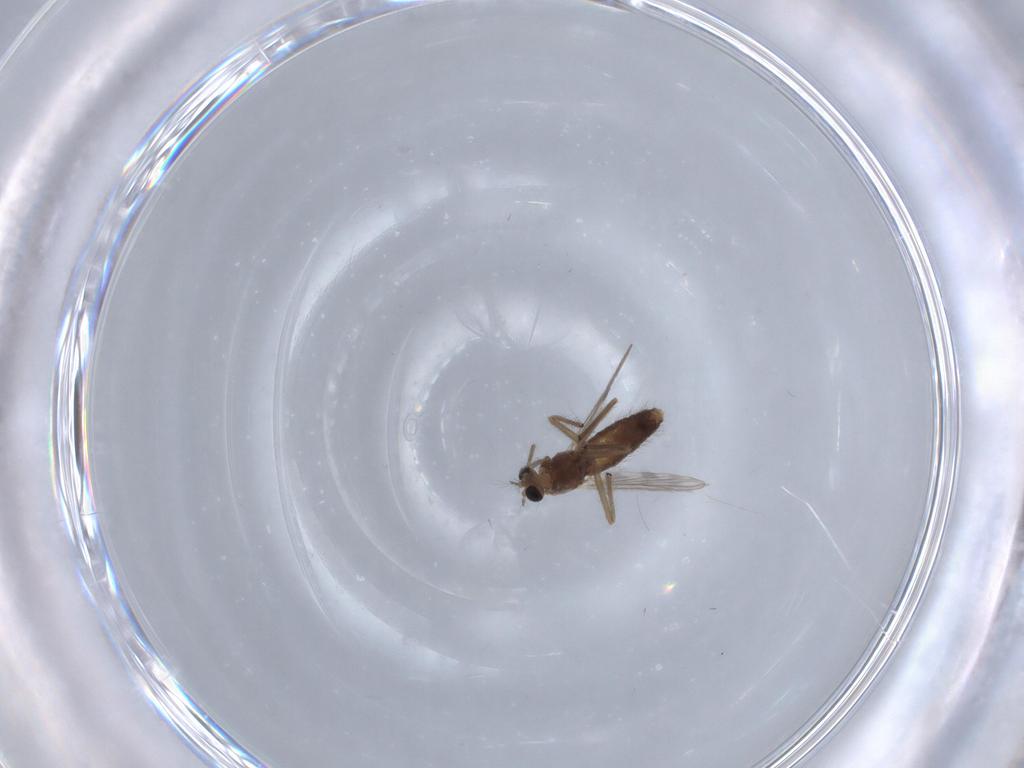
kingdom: Animalia
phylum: Arthropoda
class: Insecta
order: Diptera
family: Chironomidae
